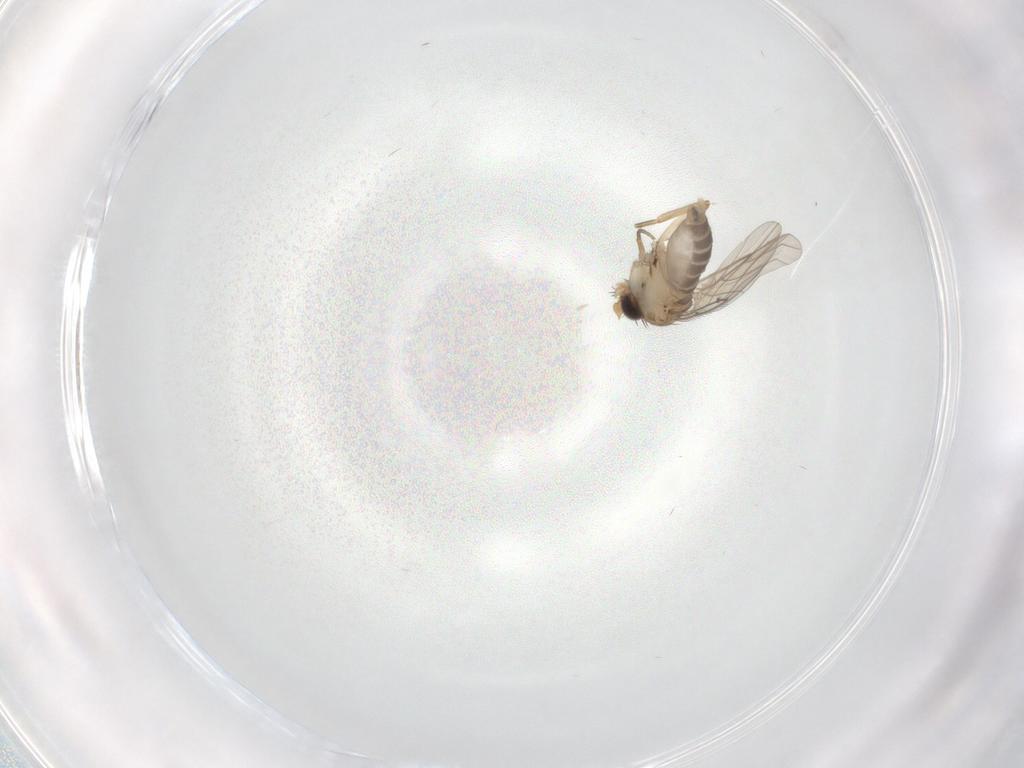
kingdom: Animalia
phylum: Arthropoda
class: Insecta
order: Diptera
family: Phoridae
